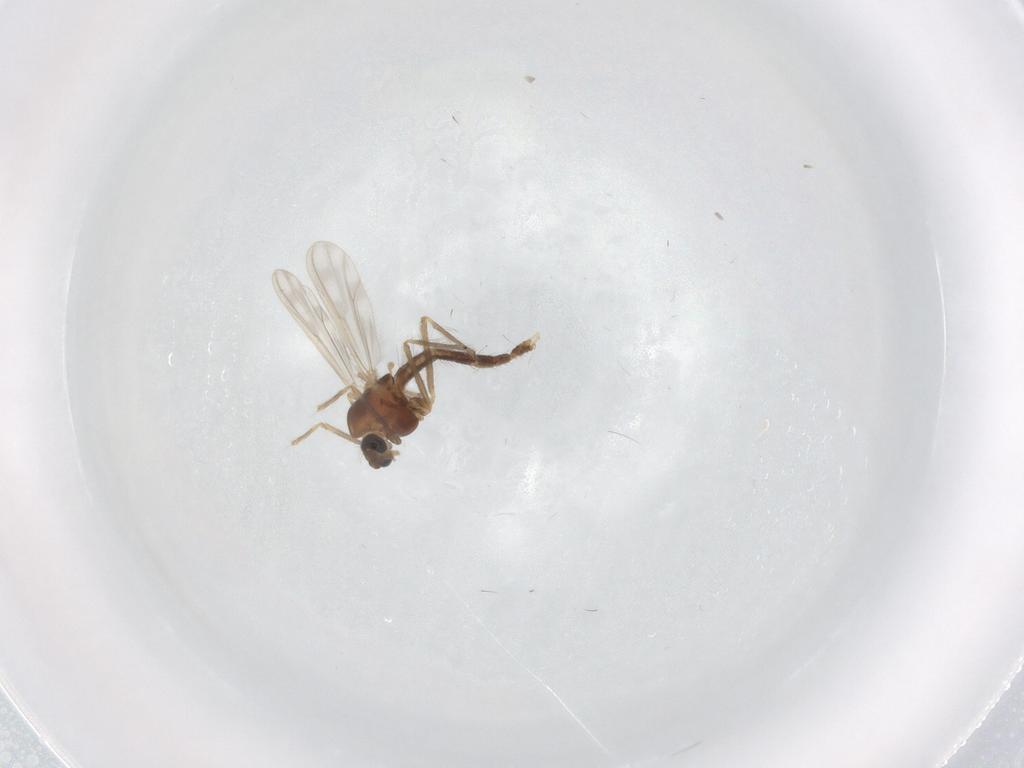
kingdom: Animalia
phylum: Arthropoda
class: Insecta
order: Diptera
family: Chironomidae
